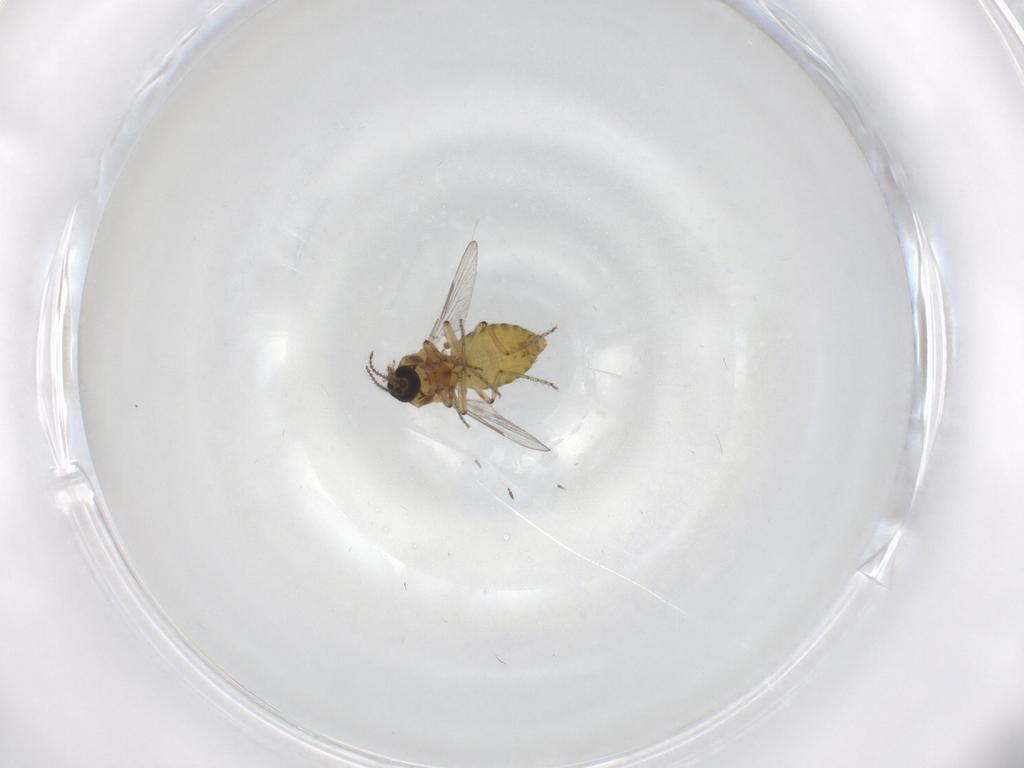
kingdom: Animalia
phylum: Arthropoda
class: Insecta
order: Diptera
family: Ceratopogonidae
